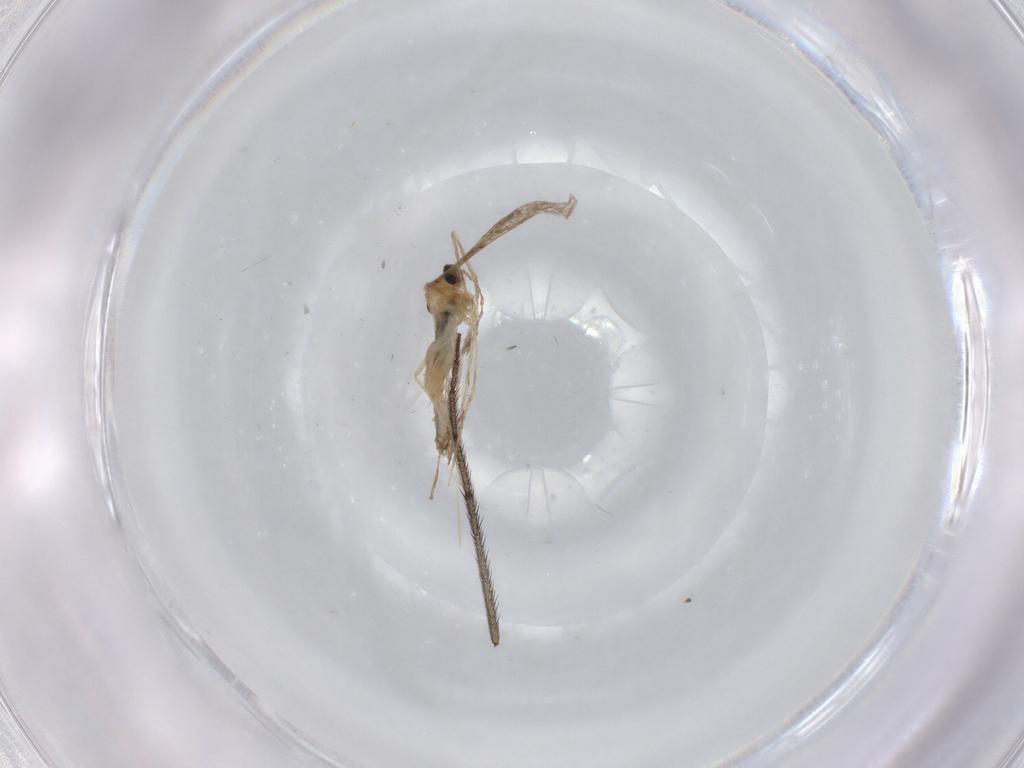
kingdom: Animalia
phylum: Arthropoda
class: Insecta
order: Diptera
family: Cecidomyiidae
